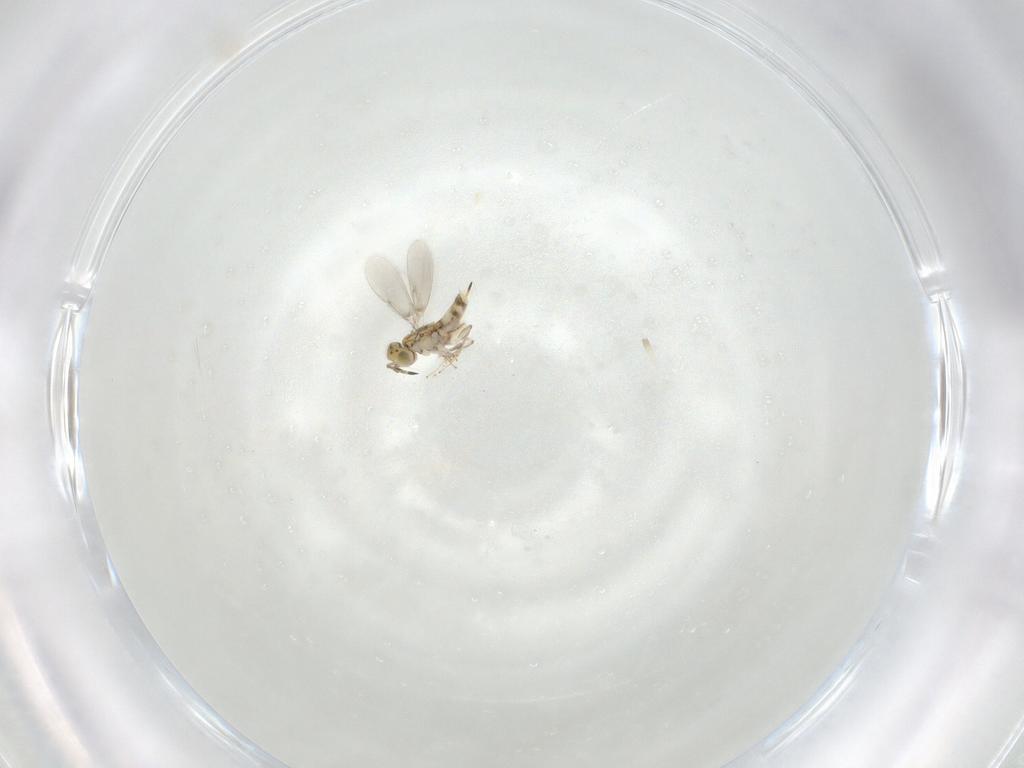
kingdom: Animalia
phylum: Arthropoda
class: Insecta
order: Hymenoptera
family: Aphelinidae
